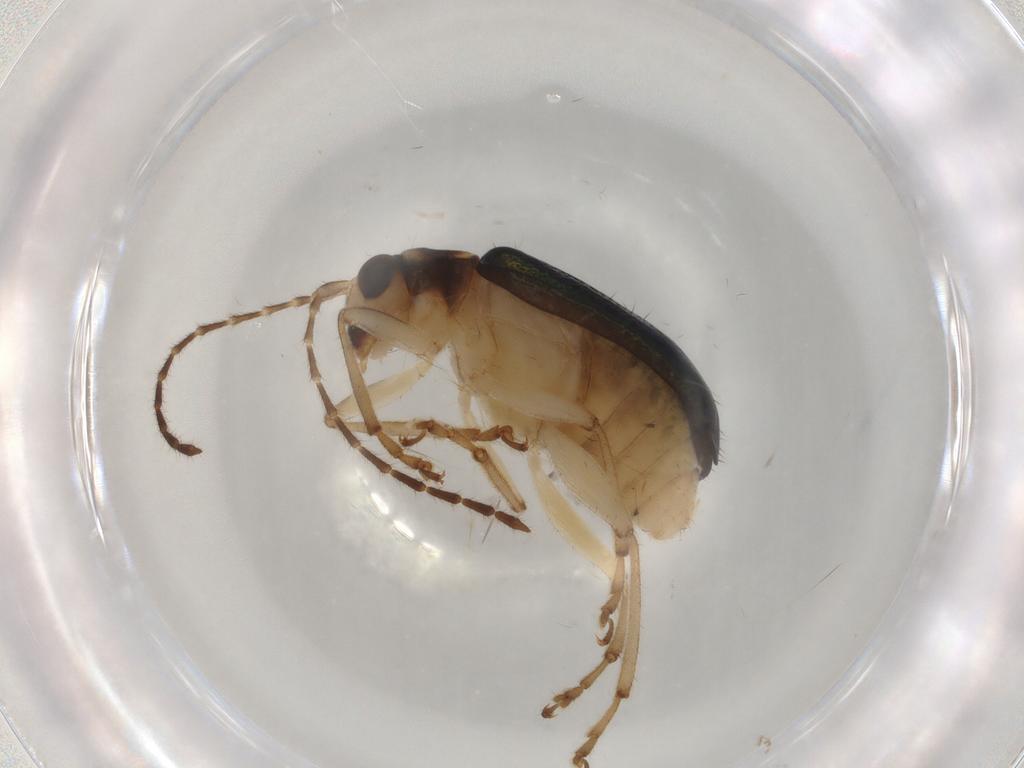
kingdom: Animalia
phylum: Arthropoda
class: Insecta
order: Coleoptera
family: Chrysomelidae
